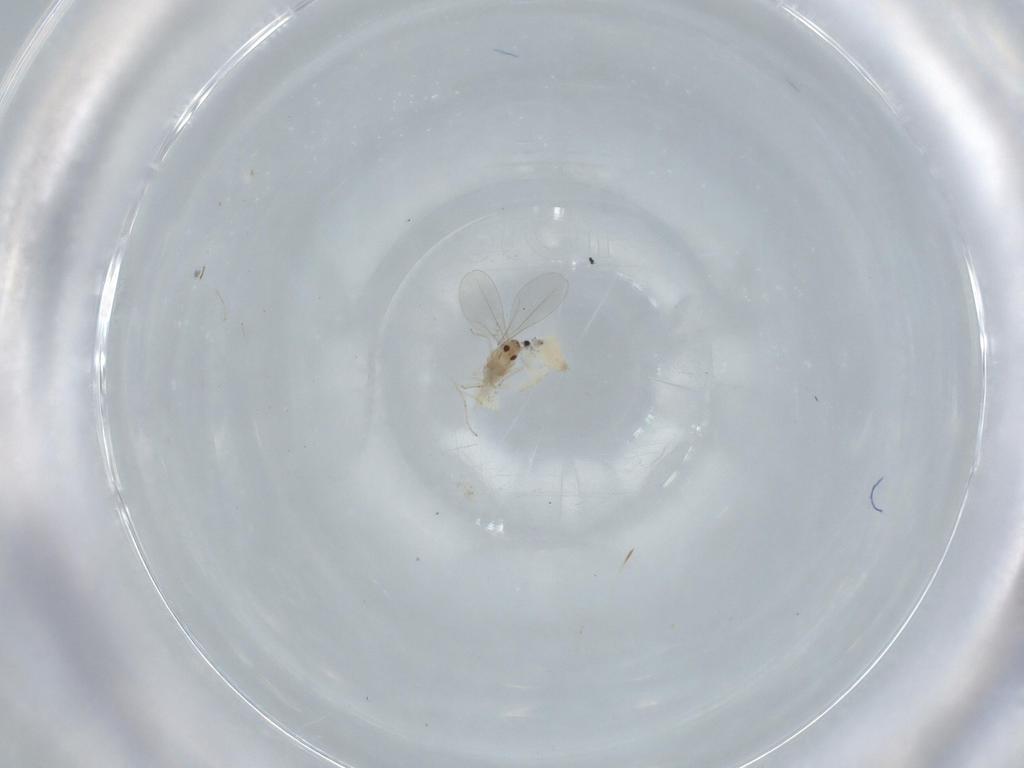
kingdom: Animalia
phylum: Arthropoda
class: Insecta
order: Diptera
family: Cecidomyiidae
